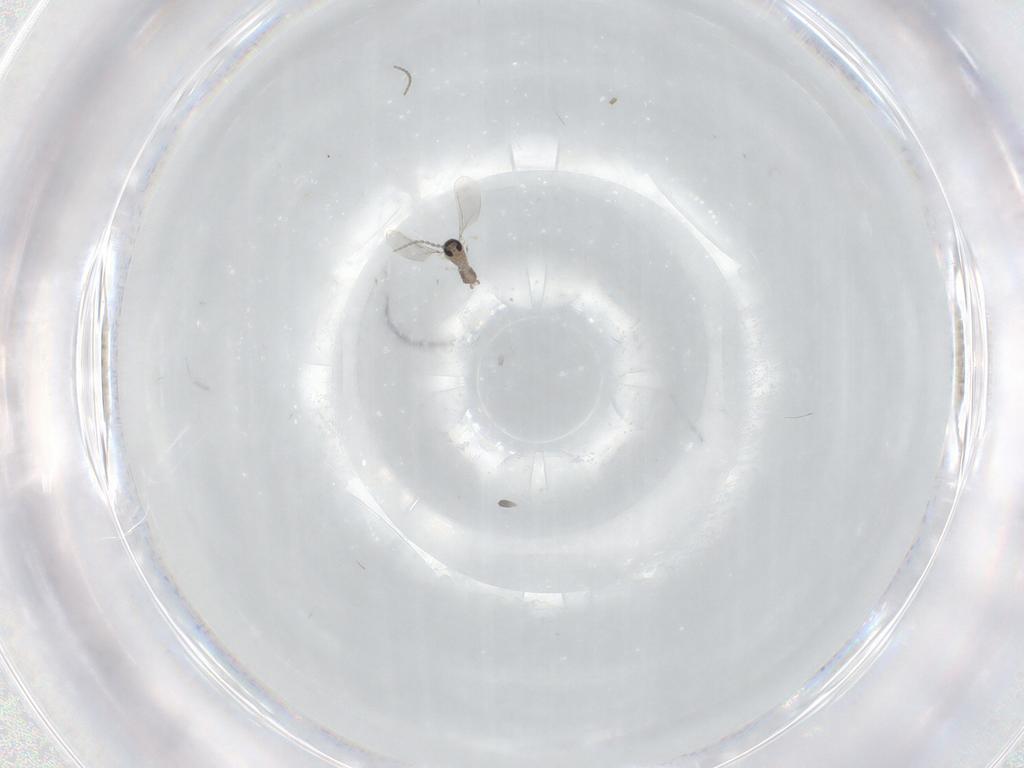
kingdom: Animalia
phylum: Arthropoda
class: Insecta
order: Diptera
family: Cecidomyiidae
